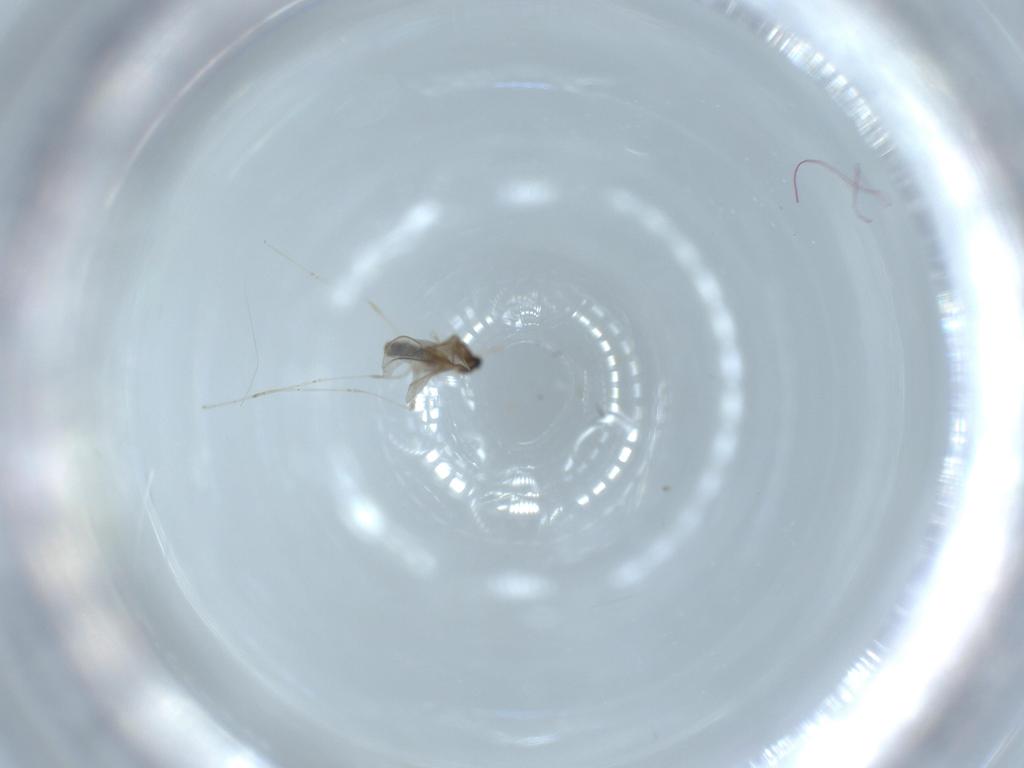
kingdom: Animalia
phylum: Arthropoda
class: Insecta
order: Diptera
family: Cecidomyiidae
